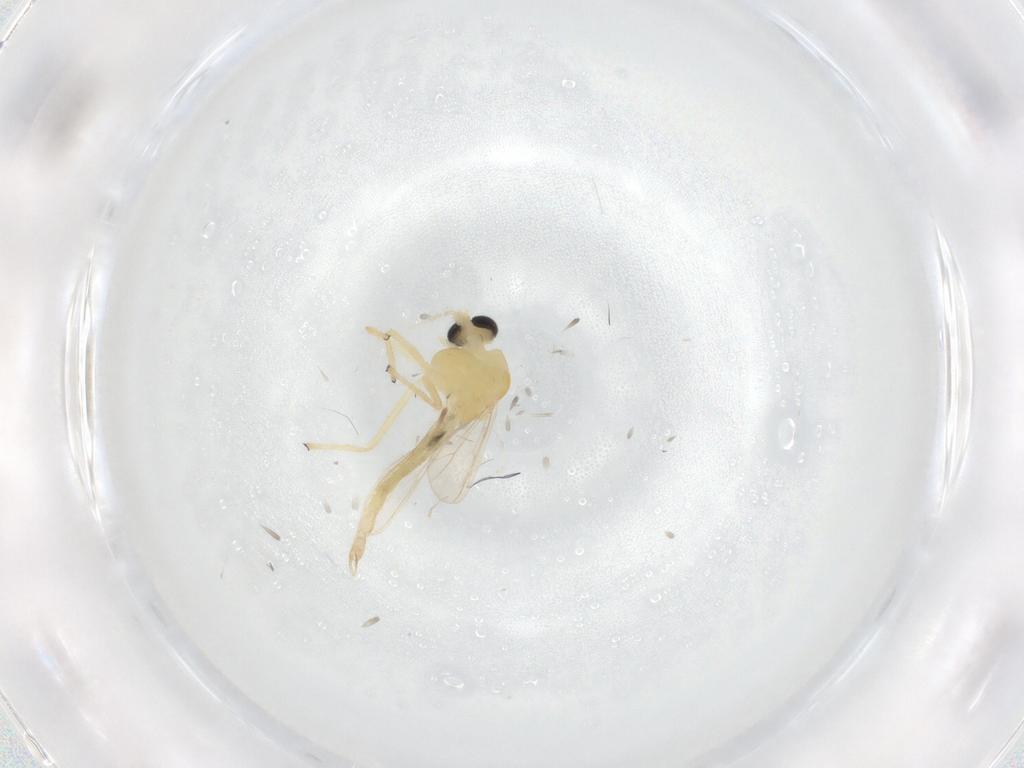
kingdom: Animalia
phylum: Arthropoda
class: Insecta
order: Diptera
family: Chironomidae
